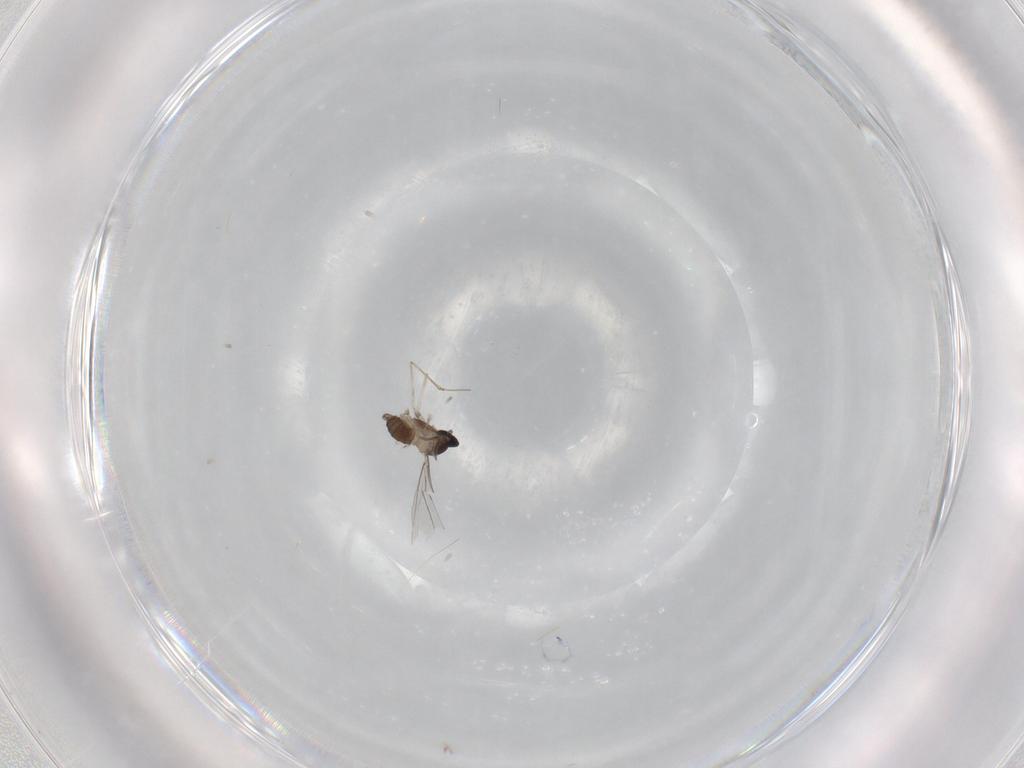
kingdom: Animalia
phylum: Arthropoda
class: Insecta
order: Diptera
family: Cecidomyiidae
